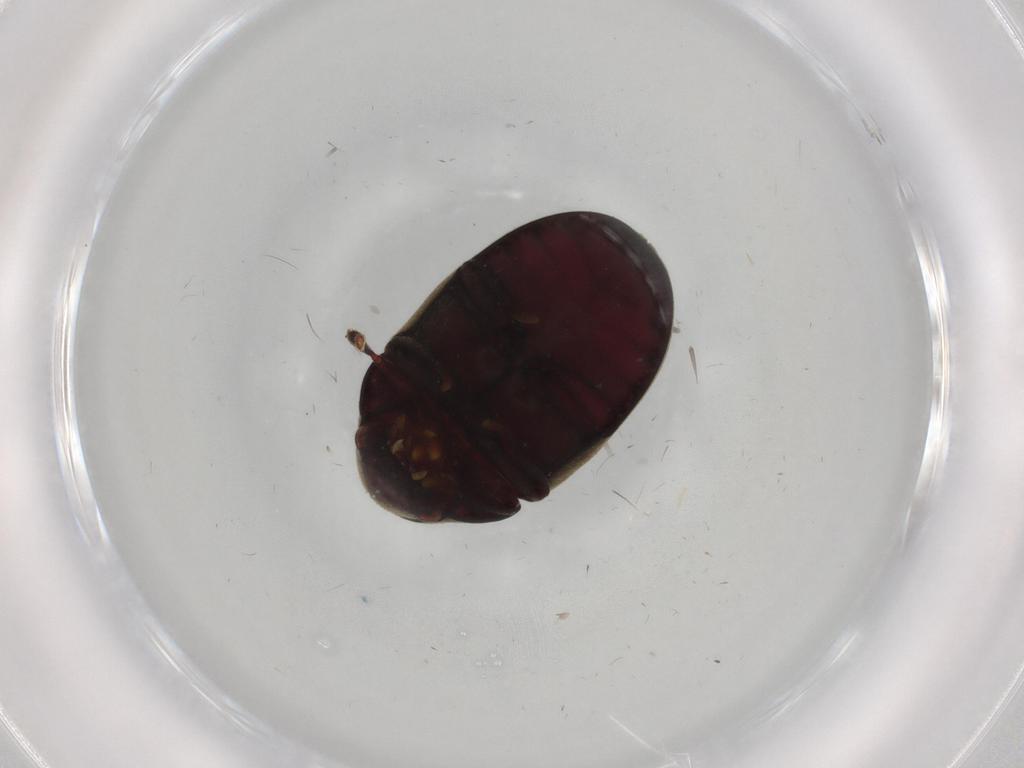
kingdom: Animalia
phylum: Arthropoda
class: Insecta
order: Coleoptera
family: Ptinidae
